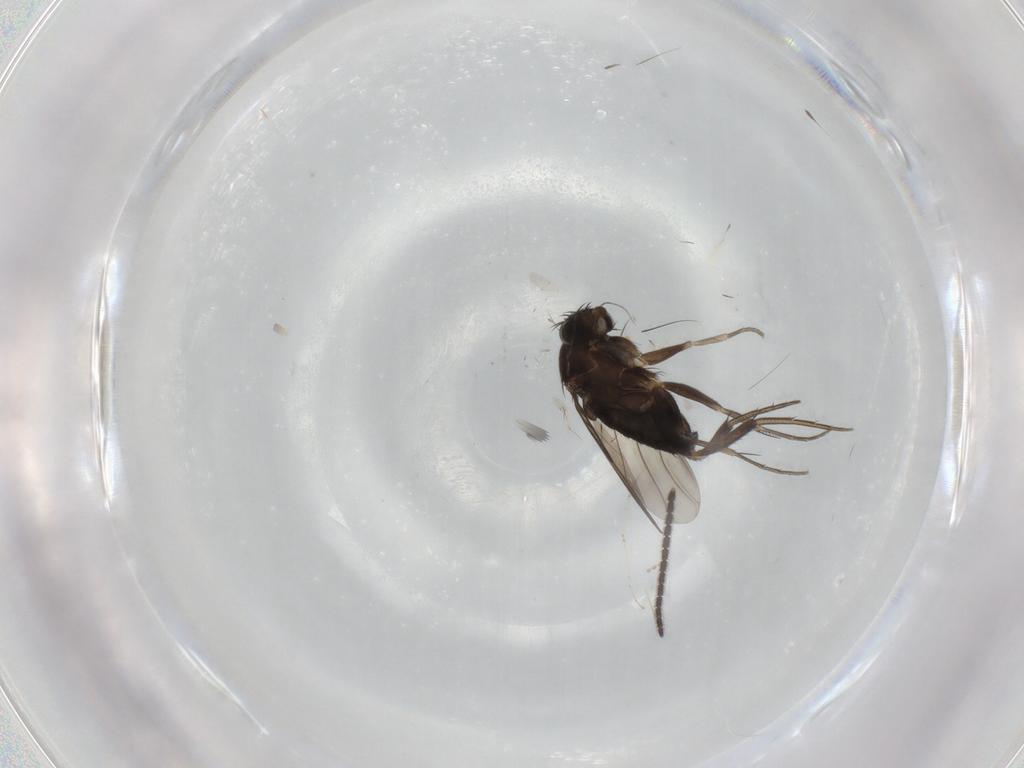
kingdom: Animalia
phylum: Arthropoda
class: Insecta
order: Diptera
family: Sciaridae
